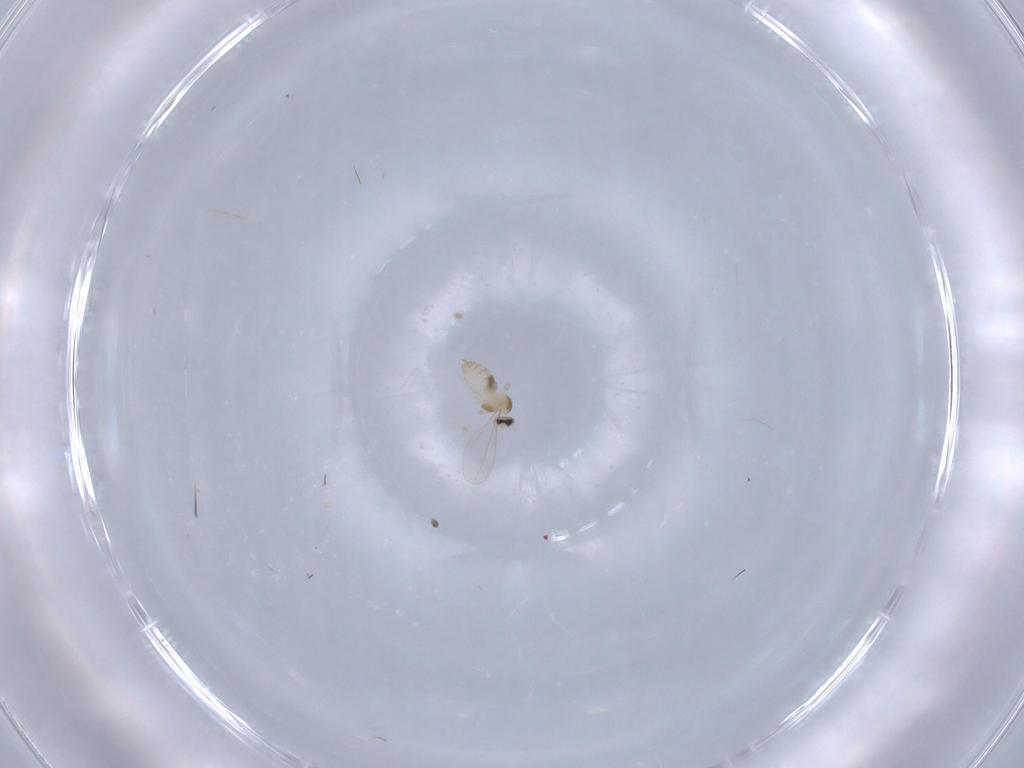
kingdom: Animalia
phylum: Arthropoda
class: Insecta
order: Diptera
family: Cecidomyiidae
